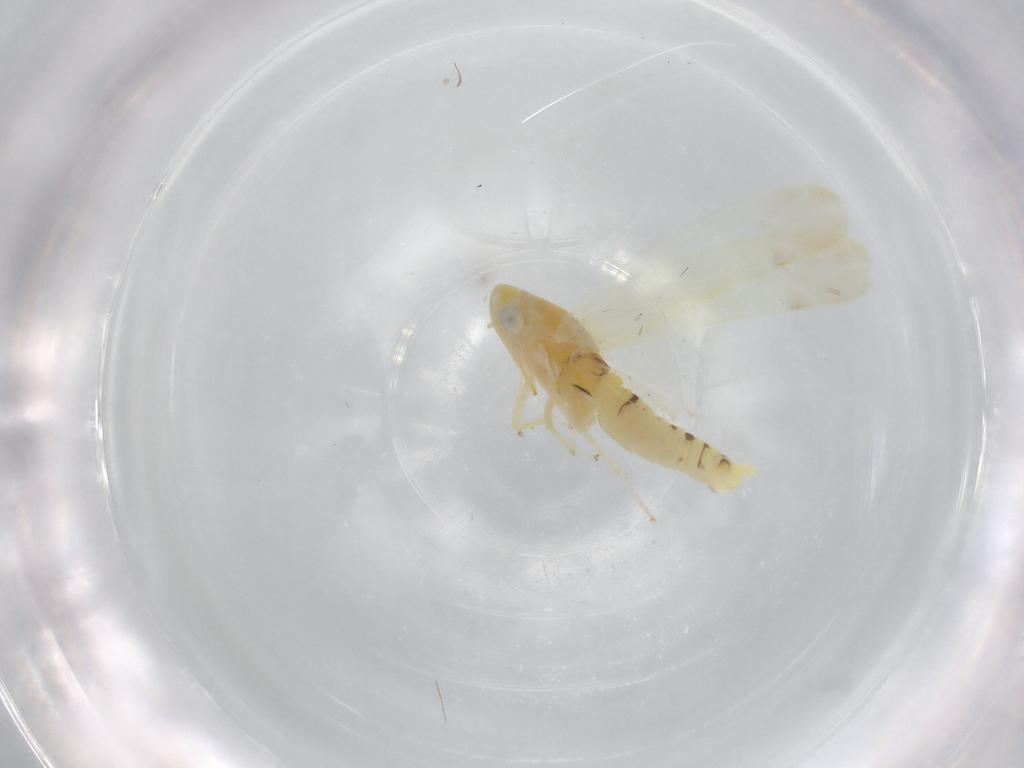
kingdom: Animalia
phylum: Arthropoda
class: Insecta
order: Hemiptera
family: Cicadellidae
